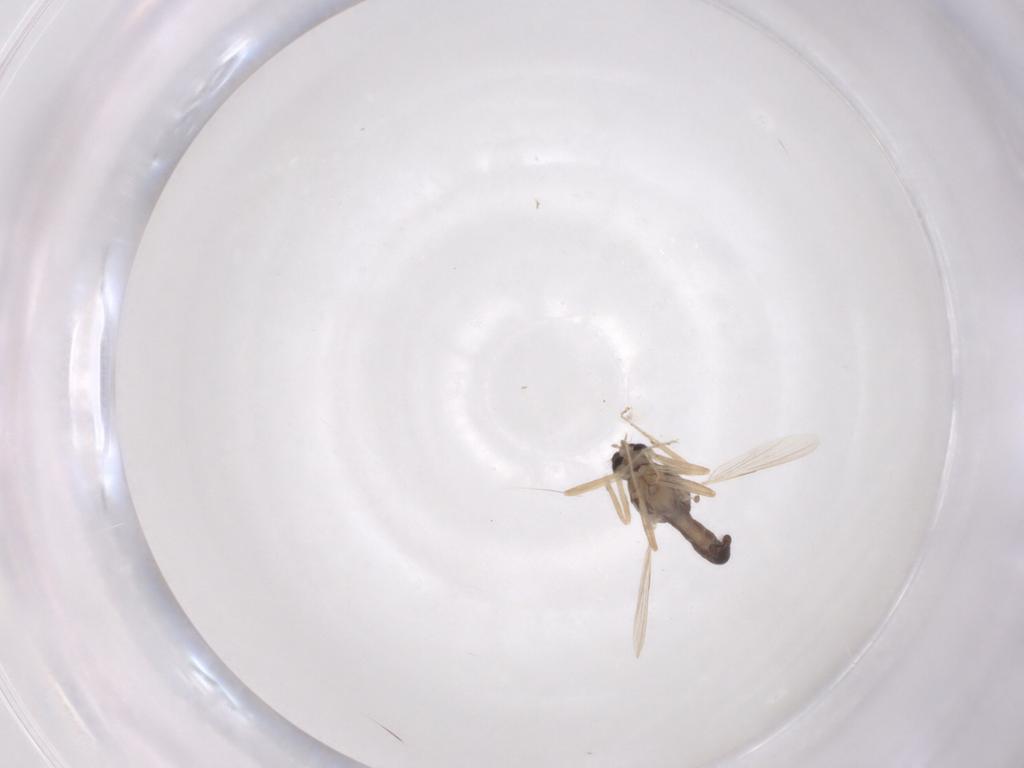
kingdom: Animalia
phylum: Arthropoda
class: Insecta
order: Diptera
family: Ceratopogonidae
